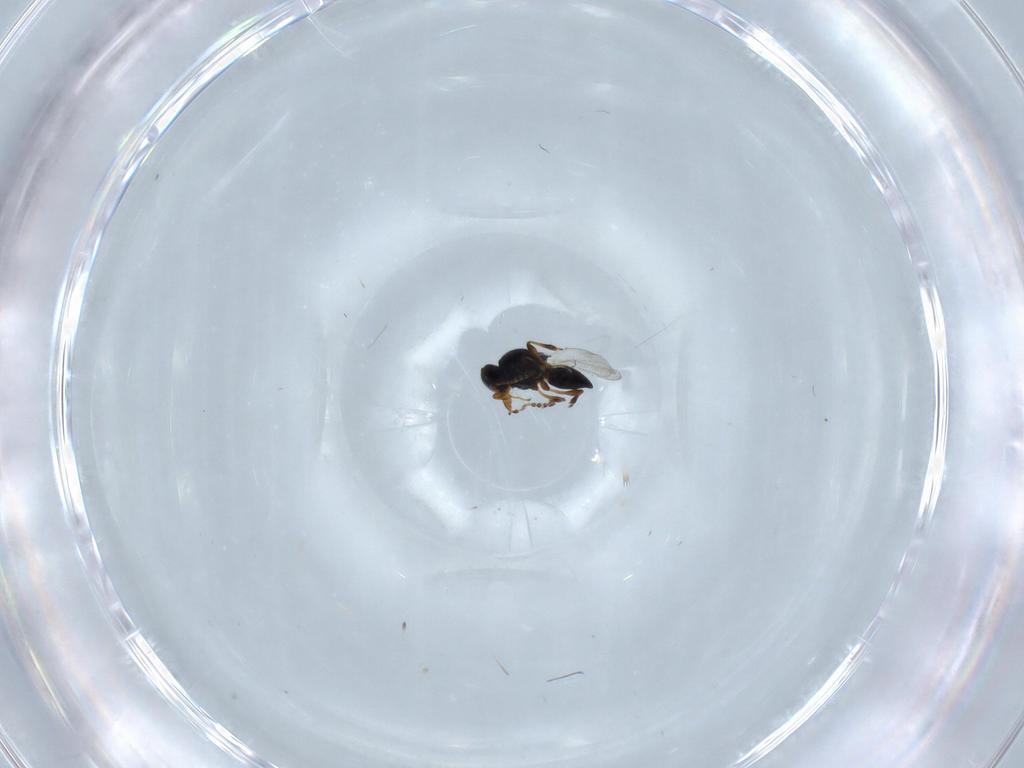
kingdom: Animalia
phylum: Arthropoda
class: Insecta
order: Hymenoptera
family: Platygastridae
